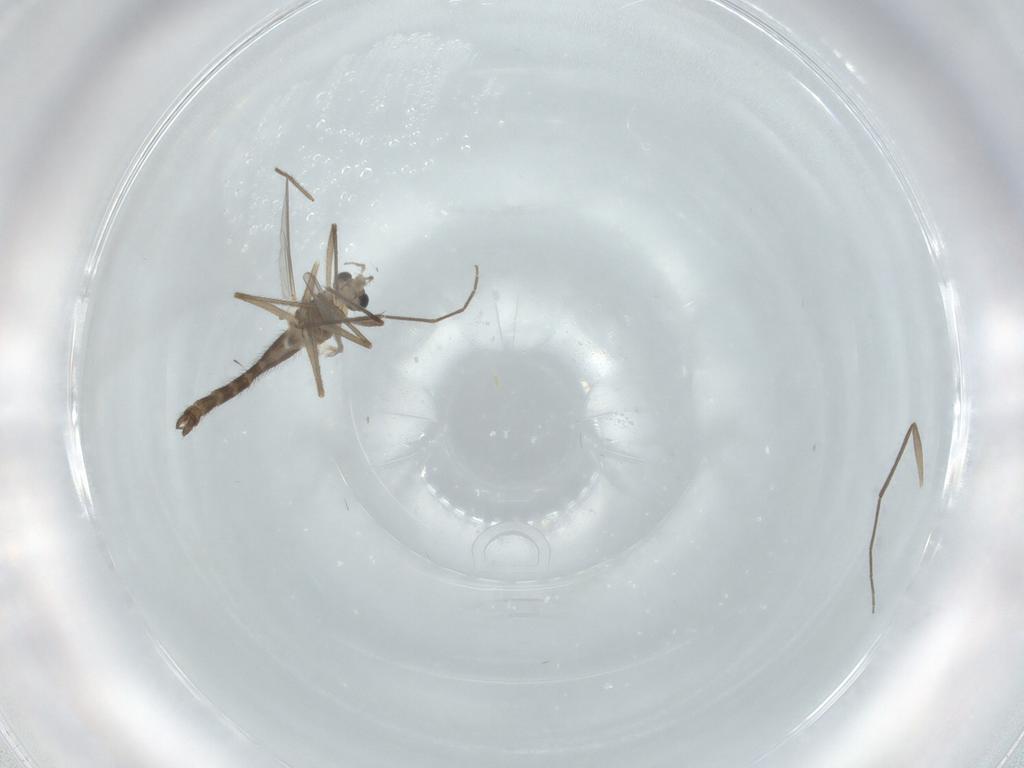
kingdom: Animalia
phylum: Arthropoda
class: Insecta
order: Diptera
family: Chironomidae
